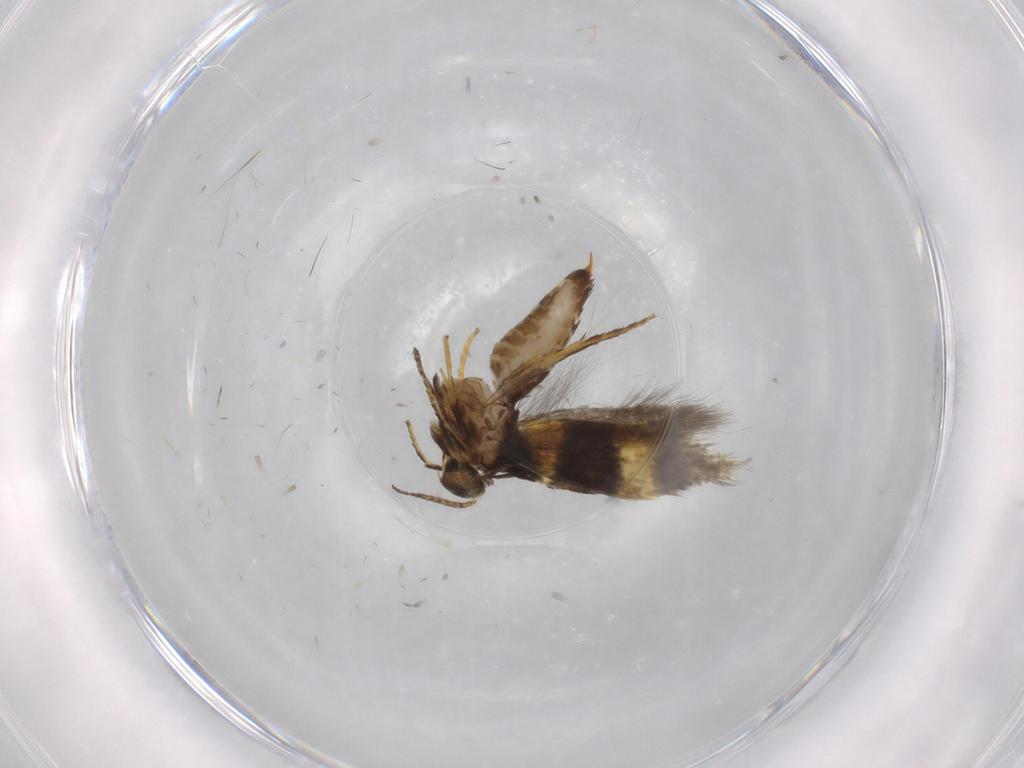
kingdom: Animalia
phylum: Arthropoda
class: Insecta
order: Lepidoptera
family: Heliozelidae
